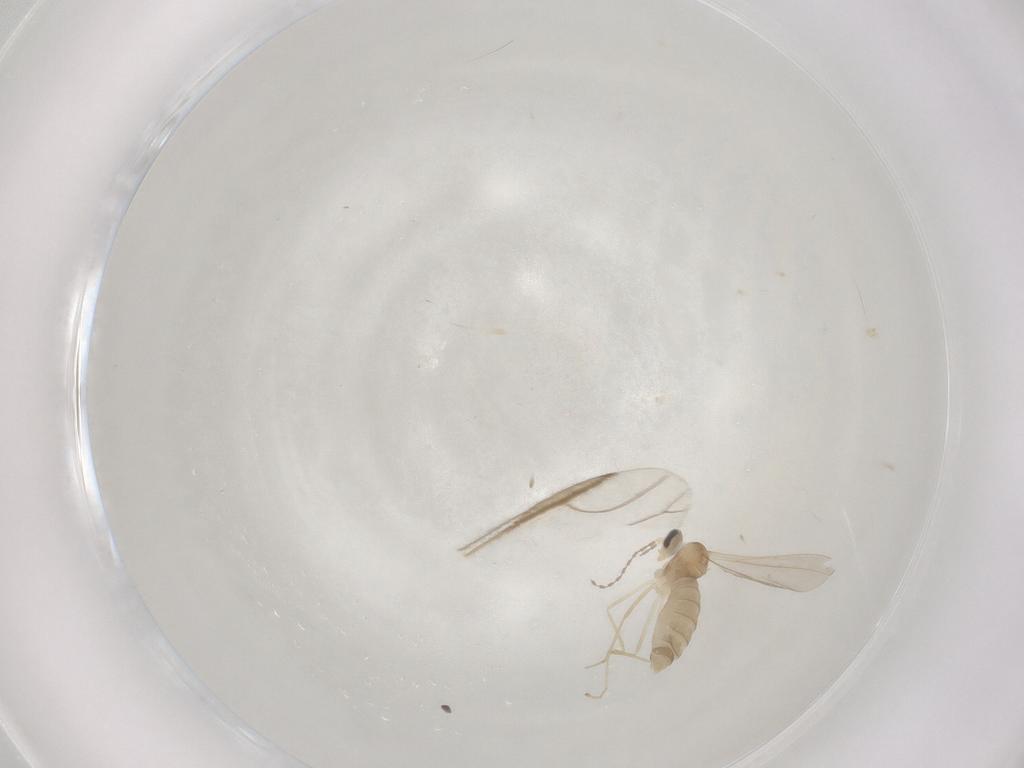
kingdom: Animalia
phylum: Arthropoda
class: Insecta
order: Diptera
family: Cecidomyiidae
